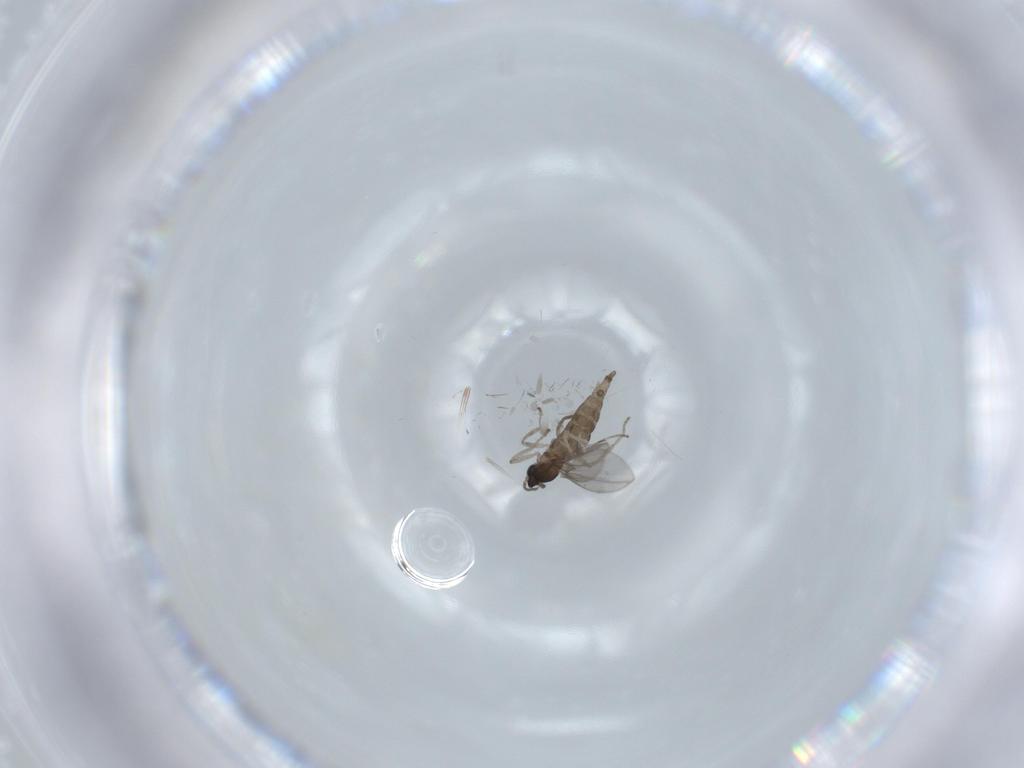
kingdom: Animalia
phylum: Arthropoda
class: Insecta
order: Diptera
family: Cecidomyiidae
